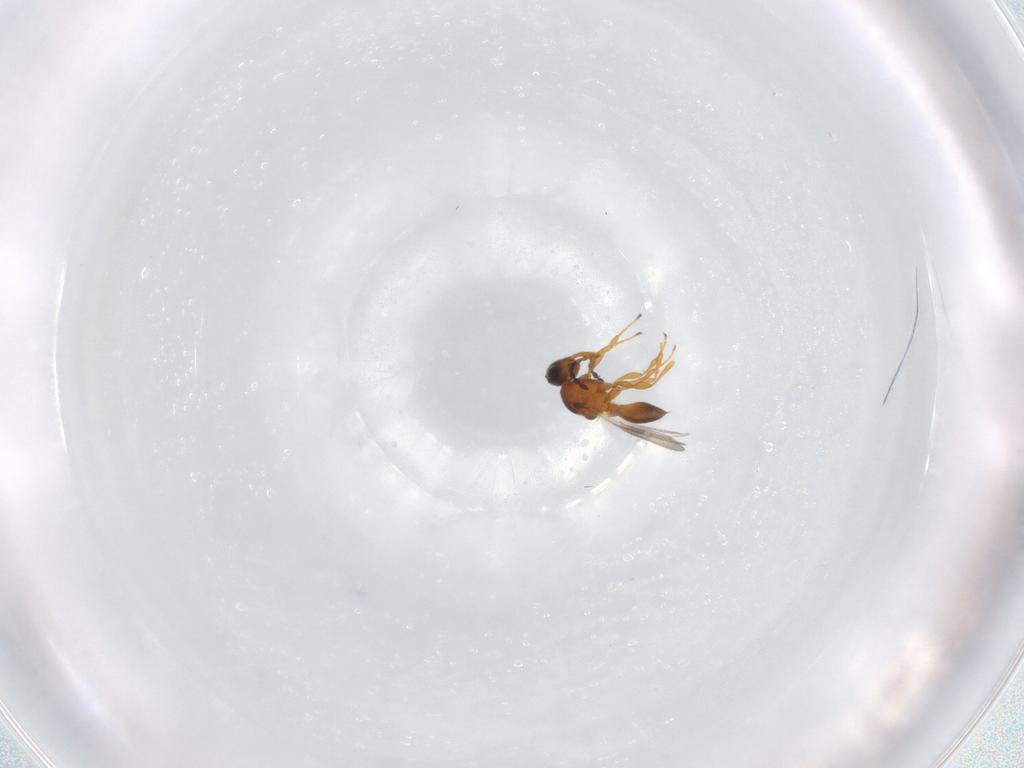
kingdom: Animalia
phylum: Arthropoda
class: Insecta
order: Hymenoptera
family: Platygastridae
